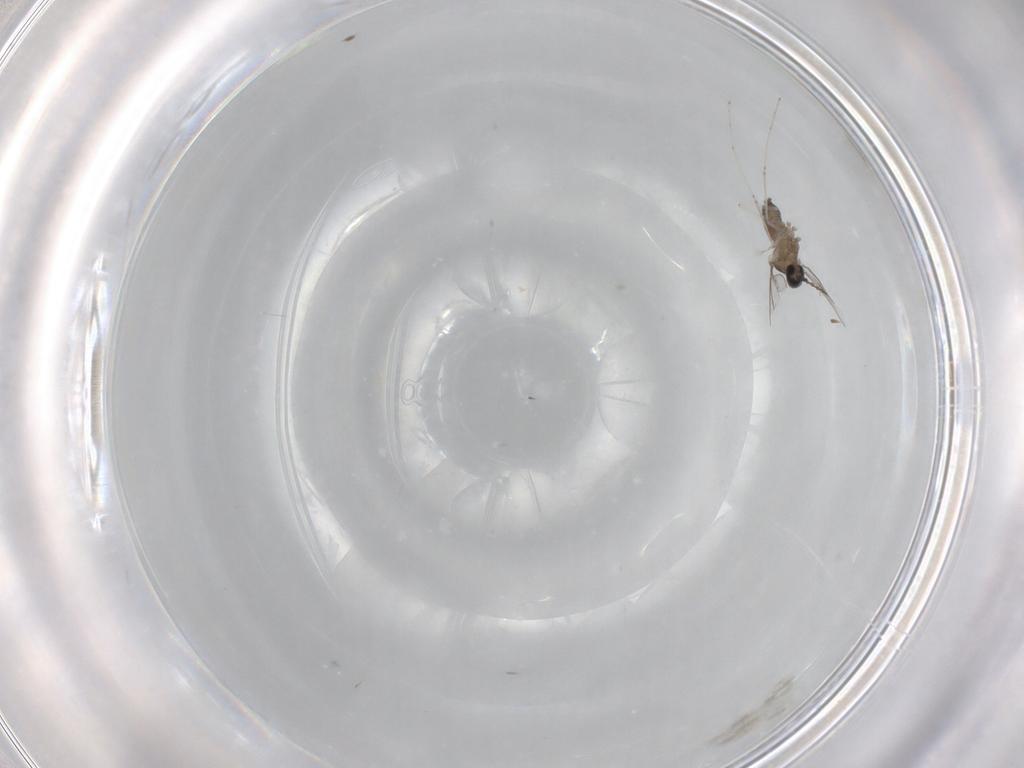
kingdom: Animalia
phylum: Arthropoda
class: Insecta
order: Diptera
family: Cecidomyiidae
